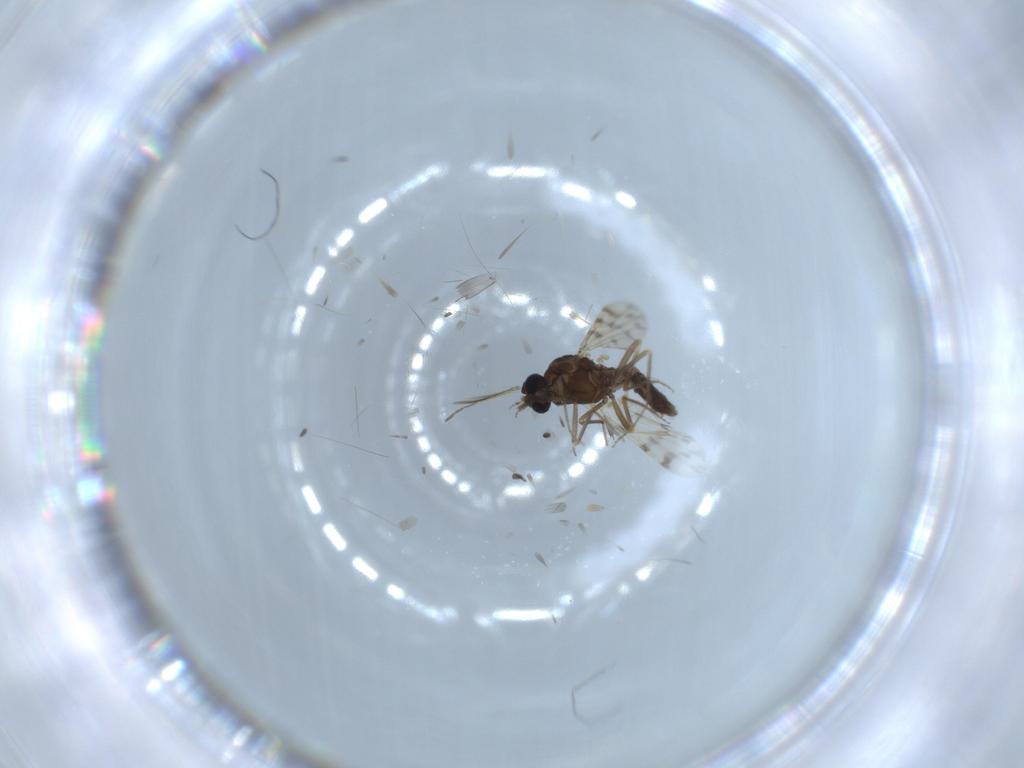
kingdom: Animalia
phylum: Arthropoda
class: Insecta
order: Diptera
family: Ceratopogonidae
